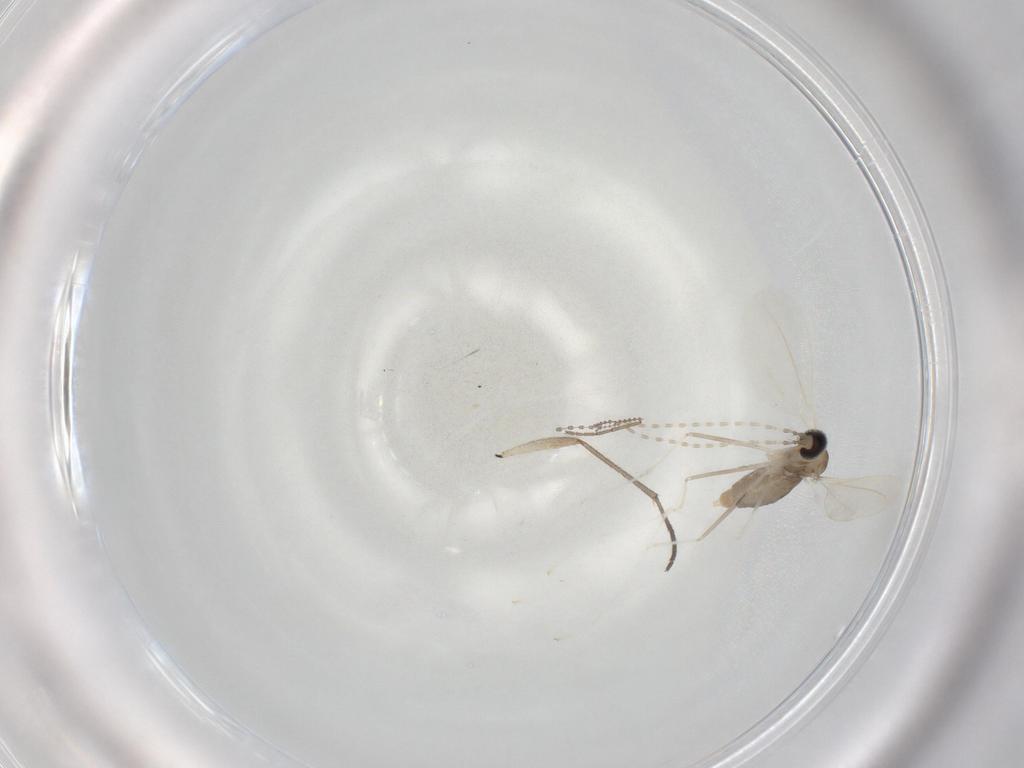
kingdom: Animalia
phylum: Arthropoda
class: Insecta
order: Diptera
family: Cecidomyiidae
